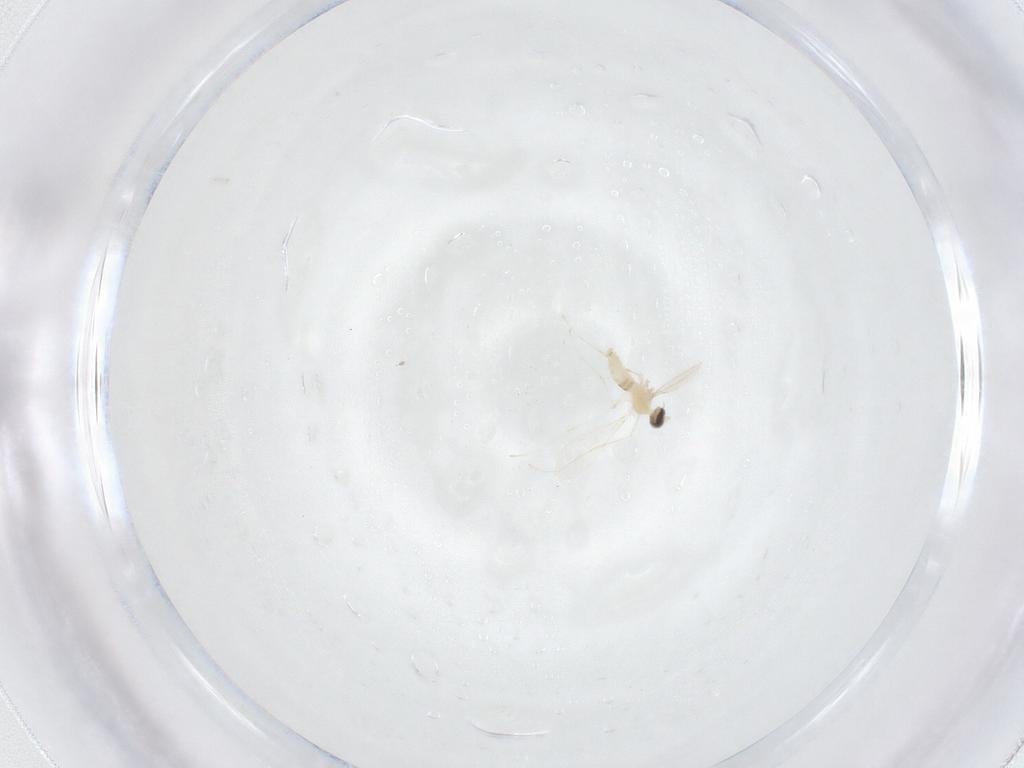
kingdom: Animalia
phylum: Arthropoda
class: Insecta
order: Diptera
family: Cecidomyiidae
